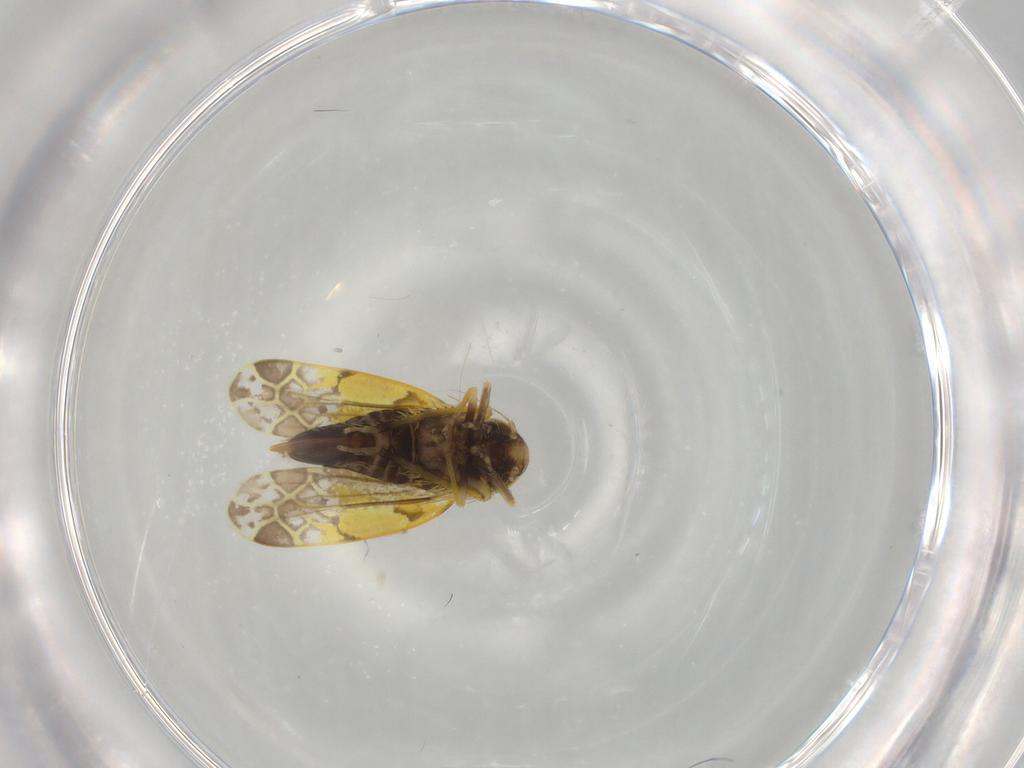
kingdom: Animalia
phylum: Arthropoda
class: Insecta
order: Hemiptera
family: Cicadellidae
